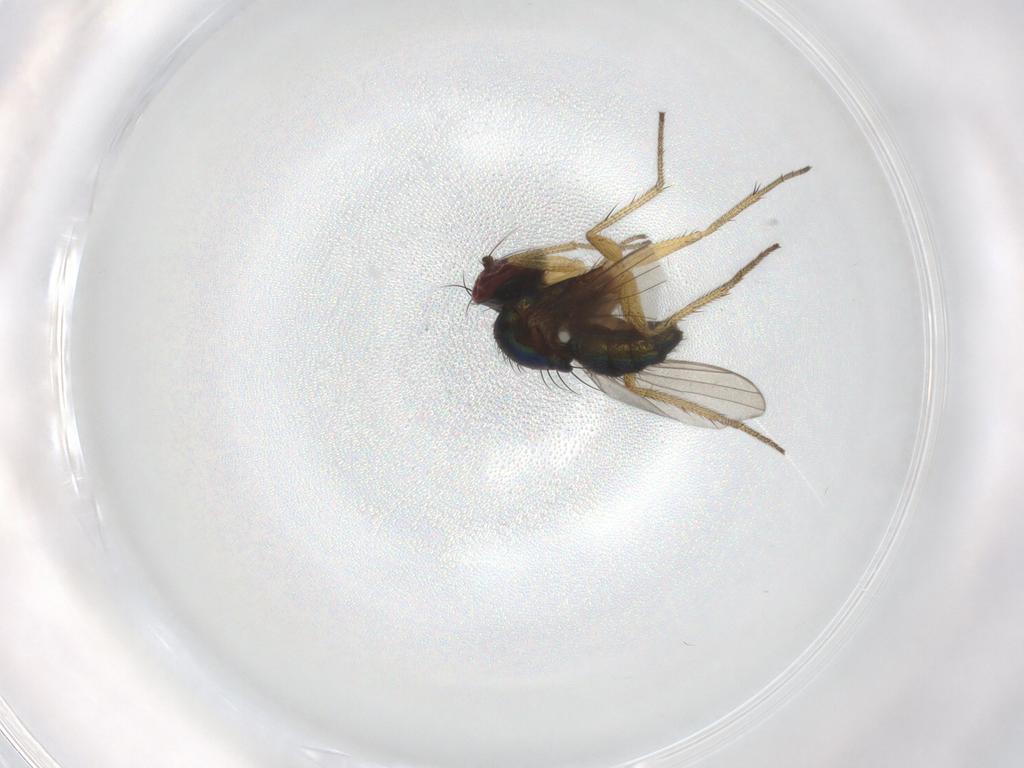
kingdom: Animalia
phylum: Arthropoda
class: Insecta
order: Diptera
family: Dolichopodidae
